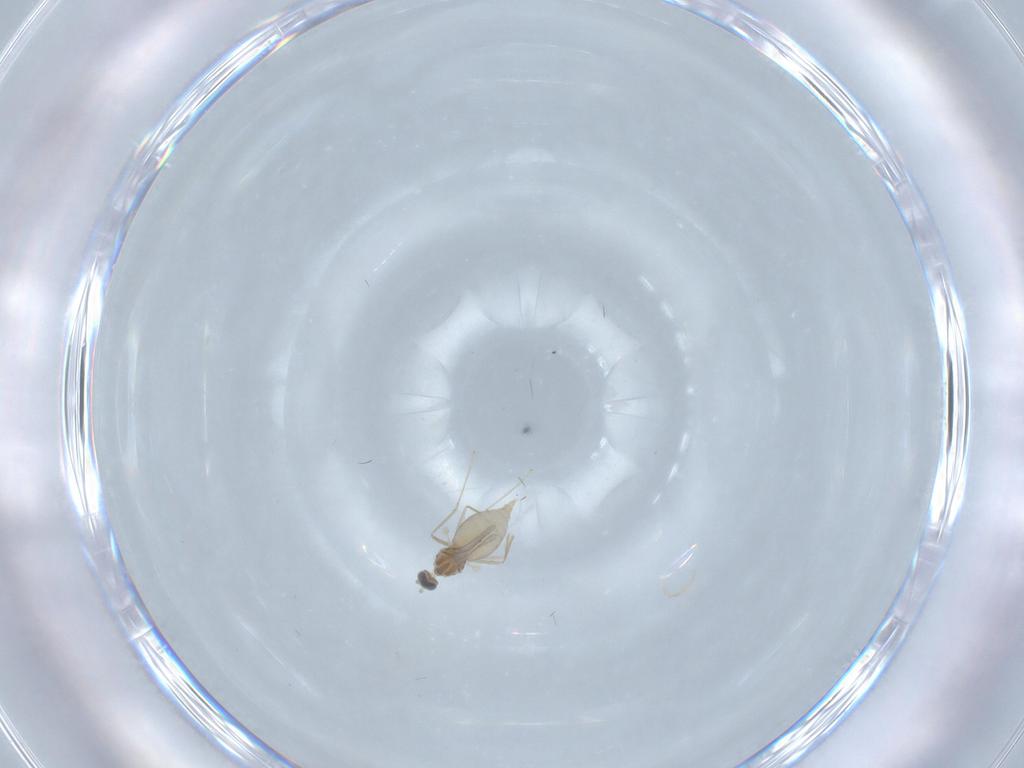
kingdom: Animalia
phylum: Arthropoda
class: Insecta
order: Diptera
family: Cecidomyiidae
